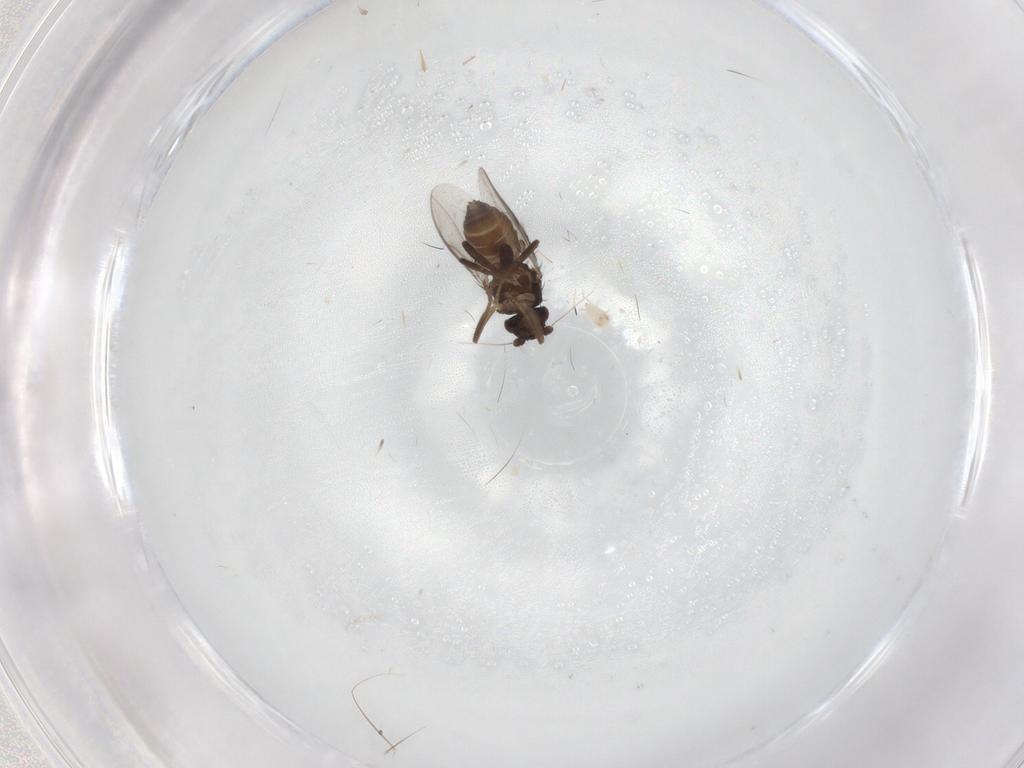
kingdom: Animalia
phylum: Arthropoda
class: Insecta
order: Diptera
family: Sphaeroceridae
